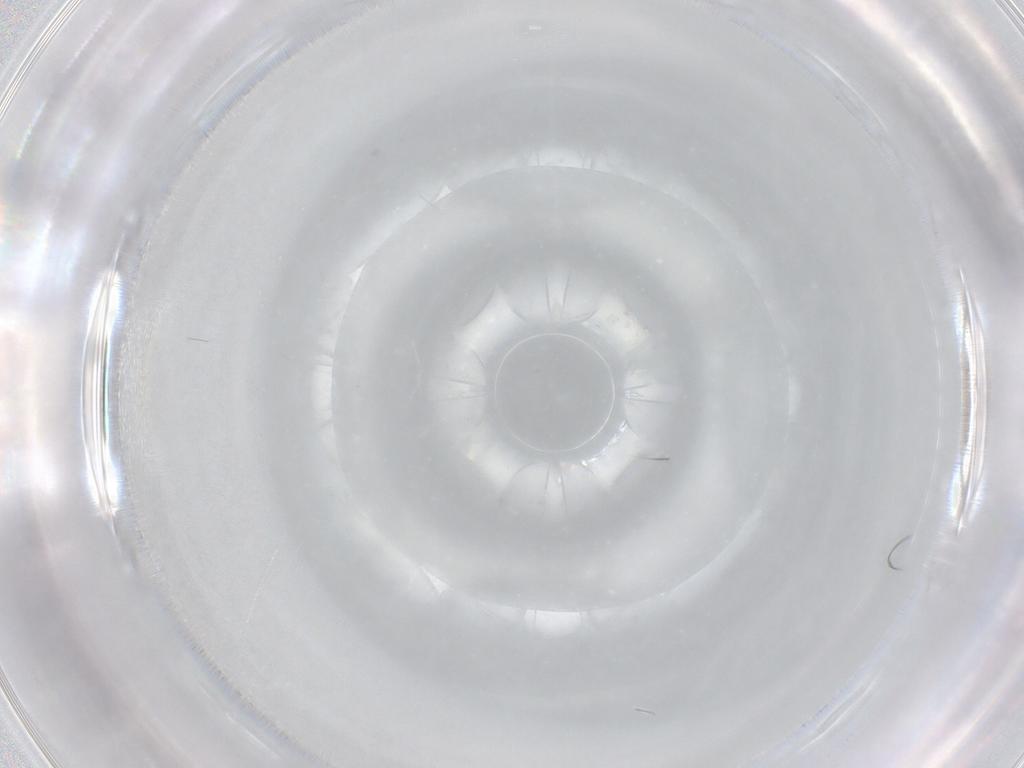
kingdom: Animalia
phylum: Arthropoda
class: Insecta
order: Hemiptera
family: Aleyrodidae
